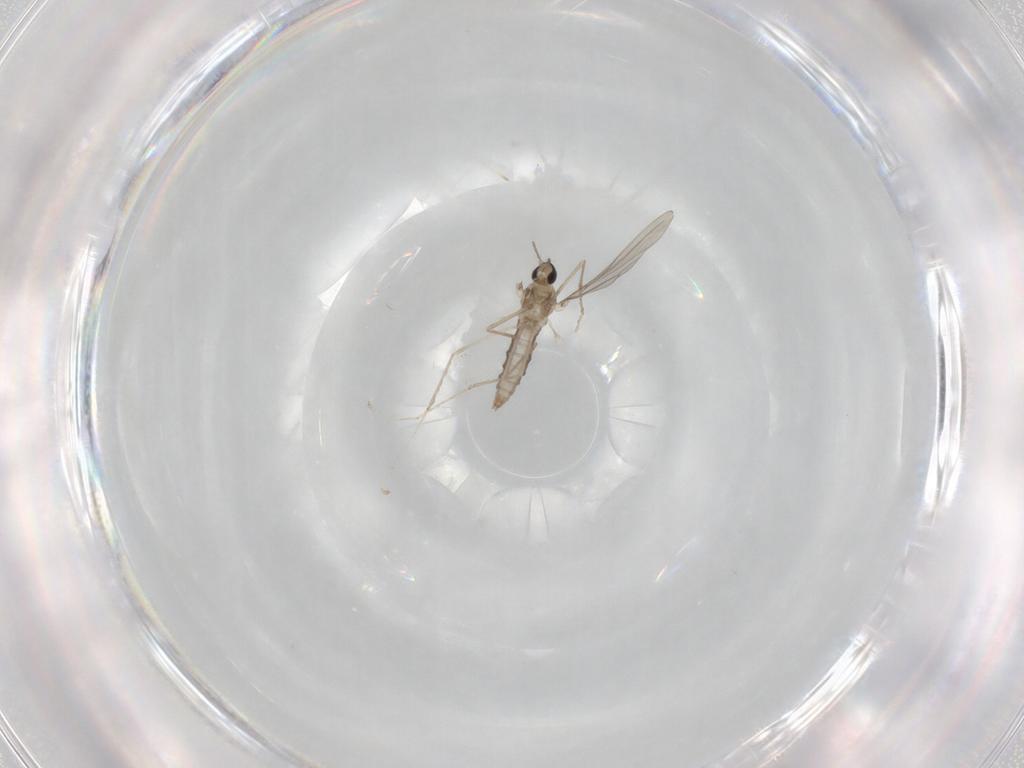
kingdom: Animalia
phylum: Arthropoda
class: Insecta
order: Diptera
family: Cecidomyiidae
